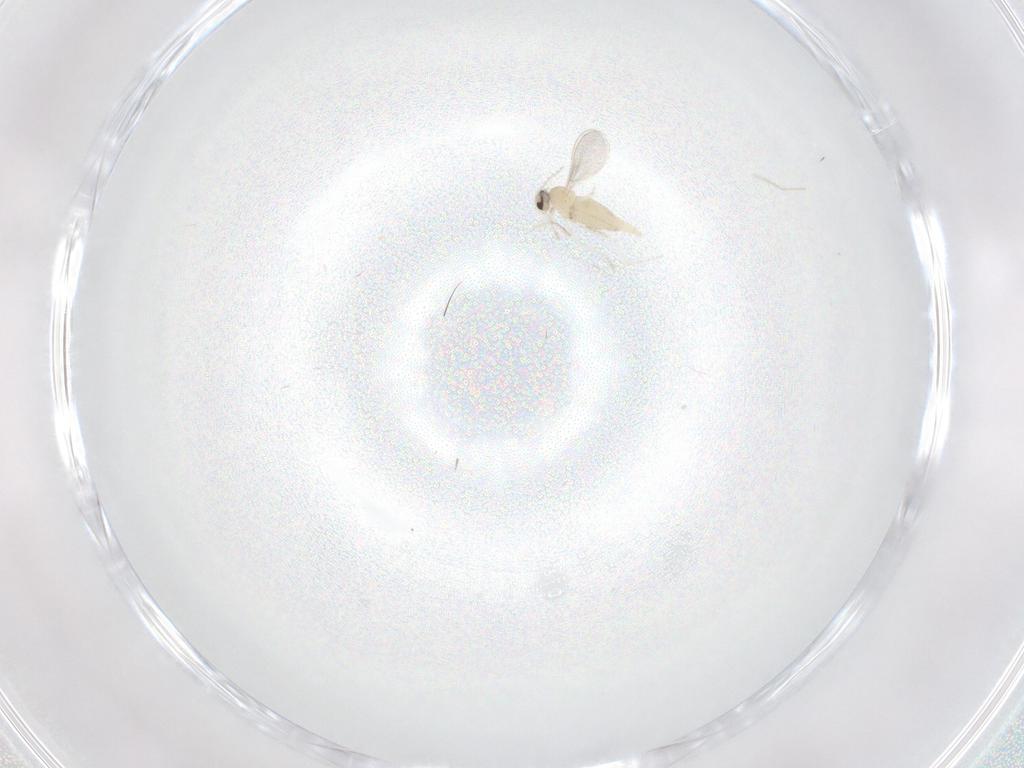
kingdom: Animalia
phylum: Arthropoda
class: Insecta
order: Diptera
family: Cecidomyiidae
